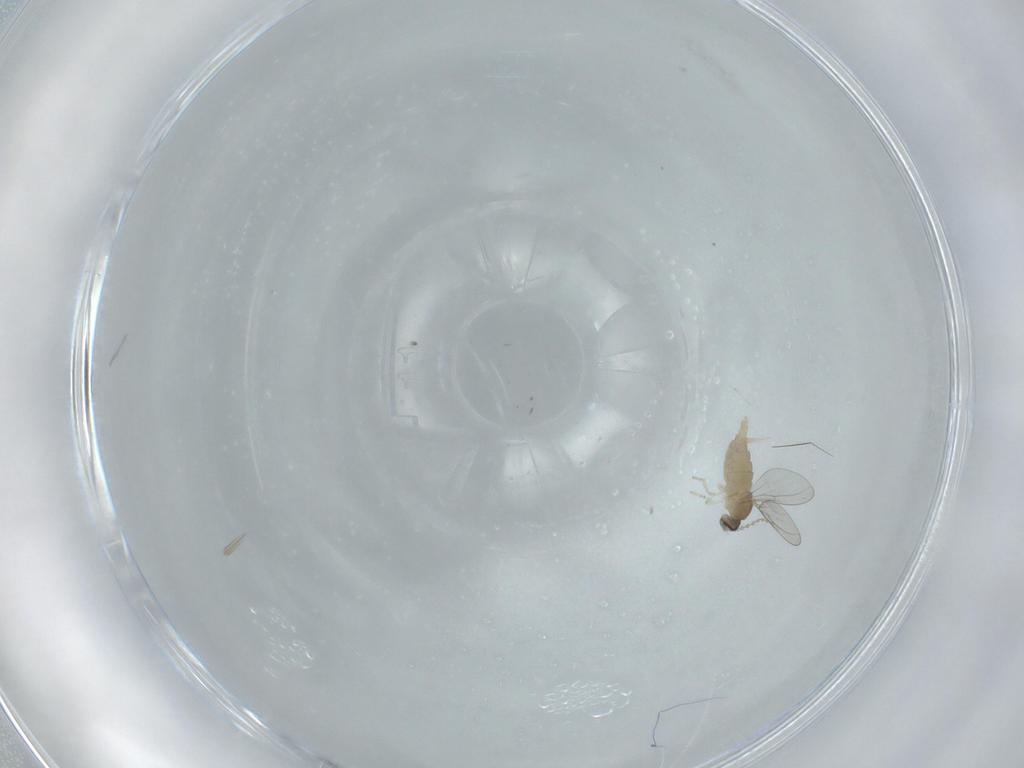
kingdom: Animalia
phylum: Arthropoda
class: Insecta
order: Diptera
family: Cecidomyiidae
